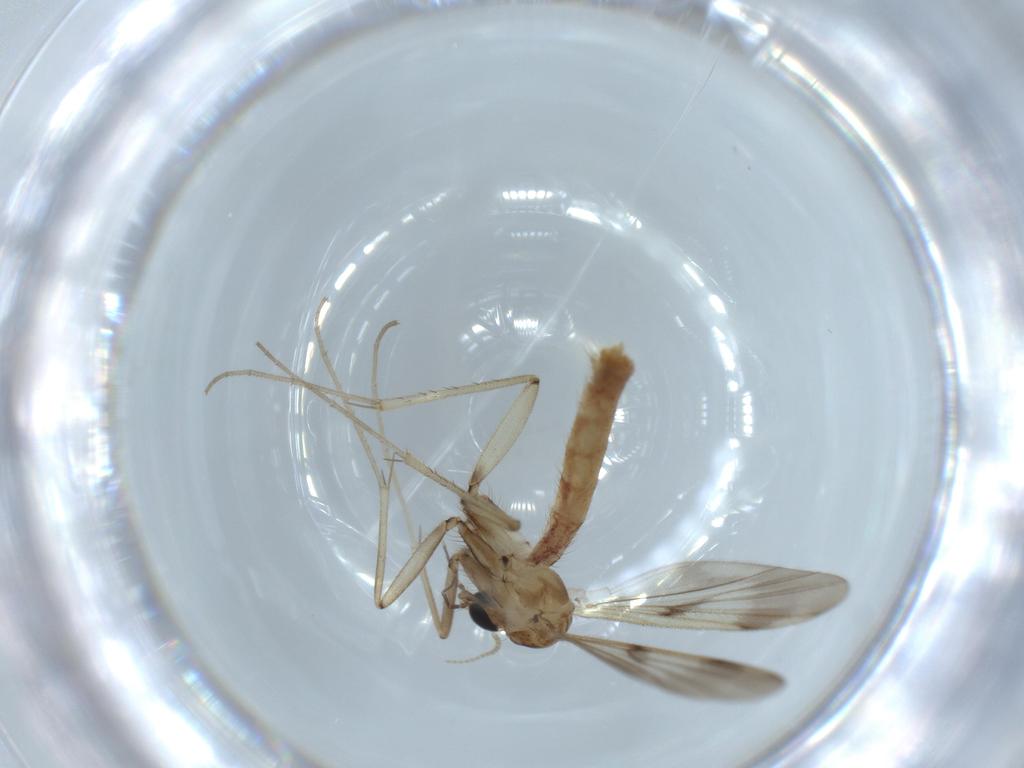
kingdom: Animalia
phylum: Arthropoda
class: Insecta
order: Diptera
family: Mycetophilidae
